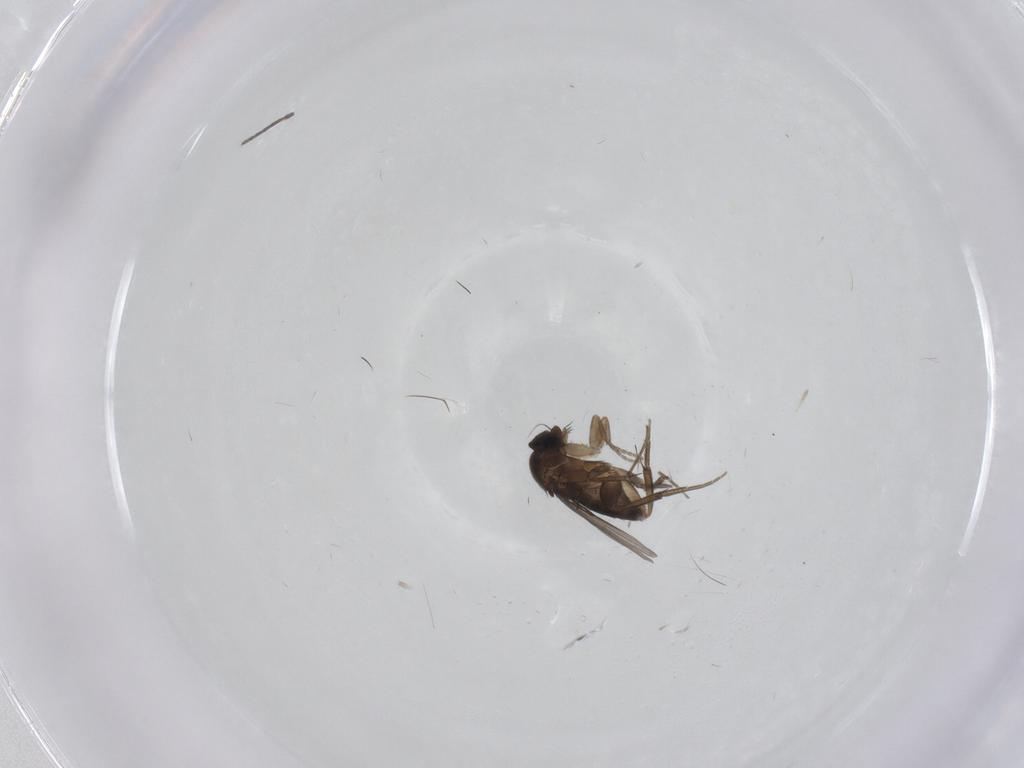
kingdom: Animalia
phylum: Arthropoda
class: Insecta
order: Diptera
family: Phoridae
